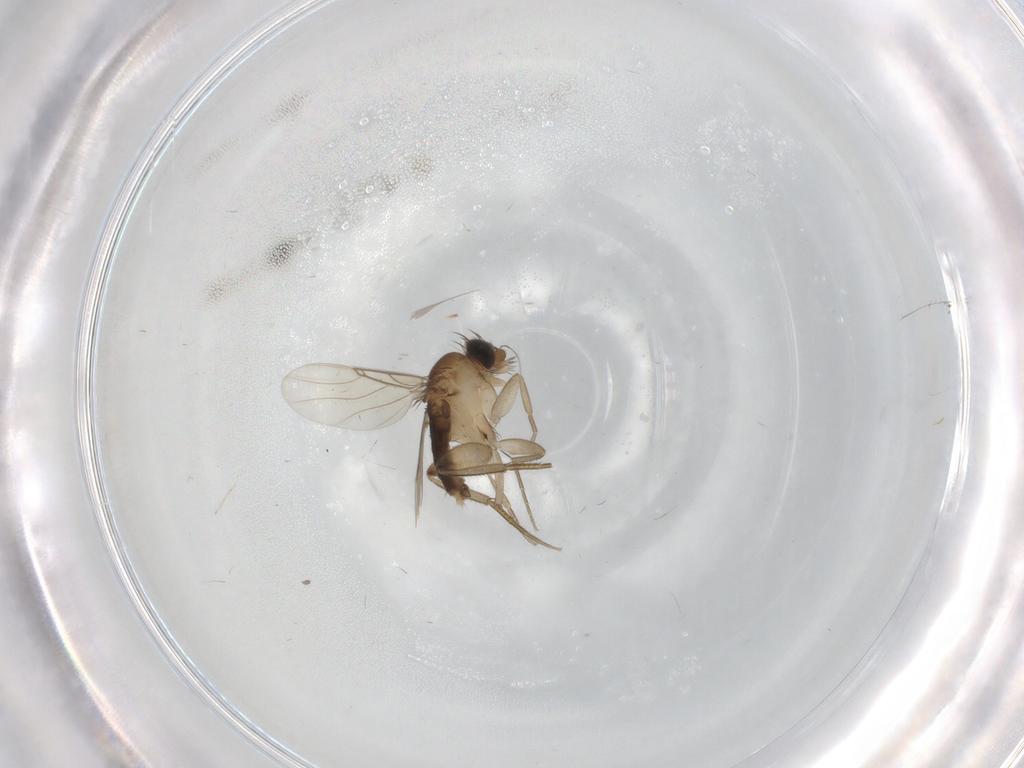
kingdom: Animalia
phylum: Arthropoda
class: Insecta
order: Diptera
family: Phoridae
